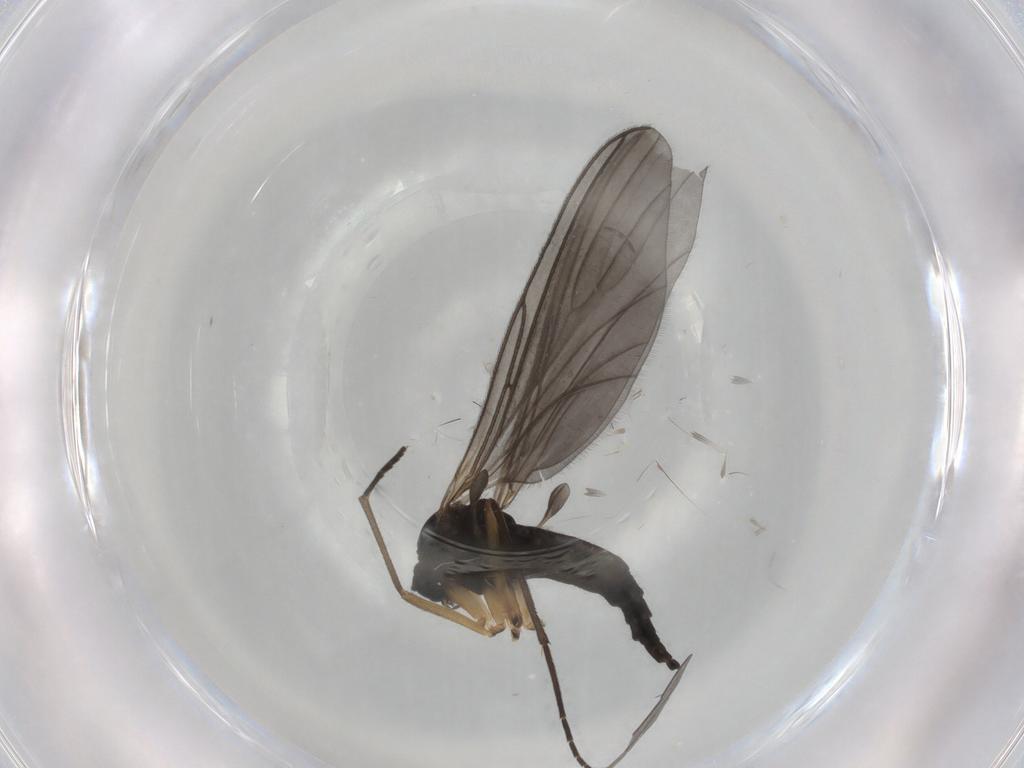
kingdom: Animalia
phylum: Arthropoda
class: Insecta
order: Diptera
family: Sciaridae
